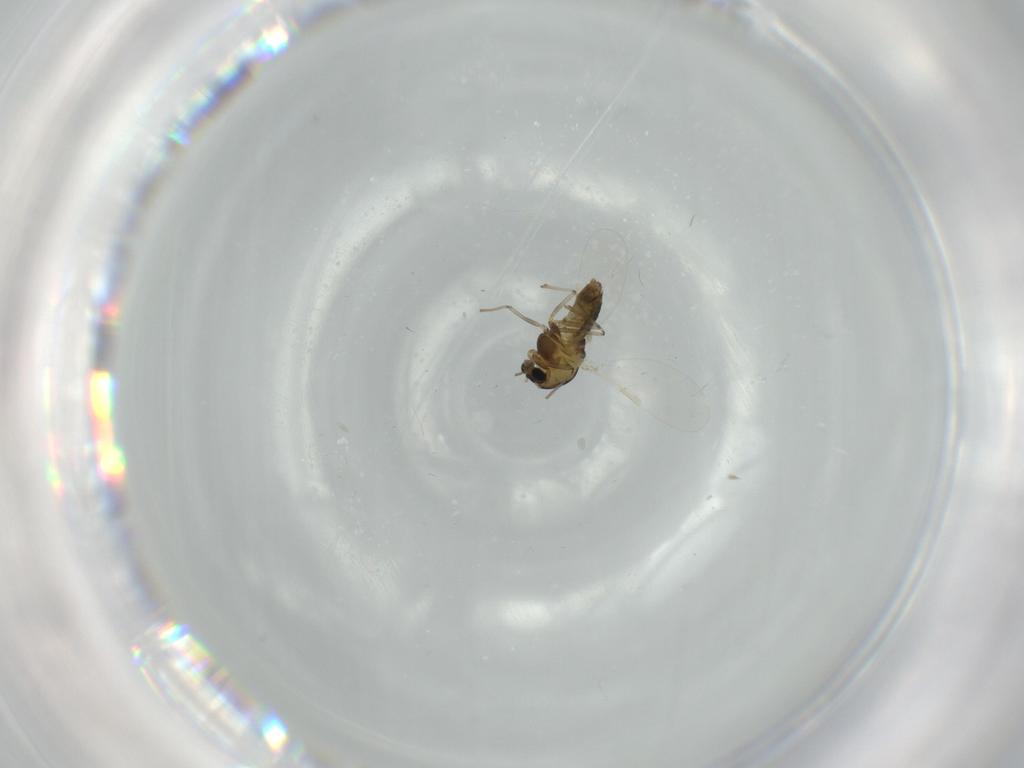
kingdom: Animalia
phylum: Arthropoda
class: Insecta
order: Diptera
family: Chironomidae
